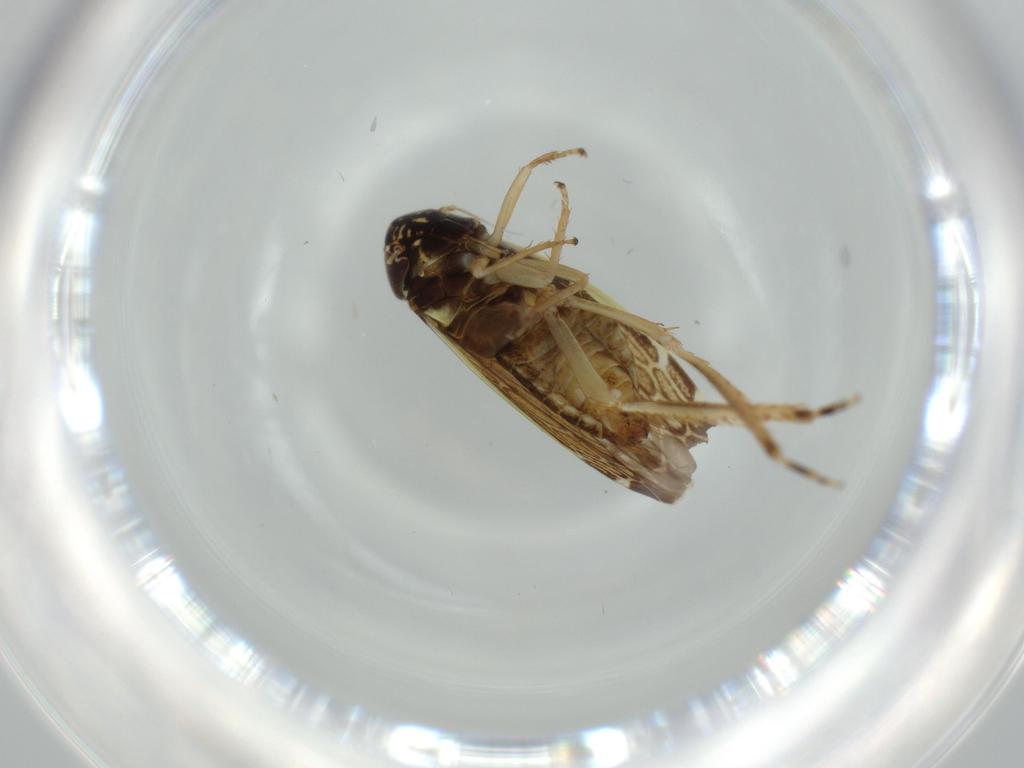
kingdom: Animalia
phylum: Arthropoda
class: Insecta
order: Hemiptera
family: Cicadellidae
